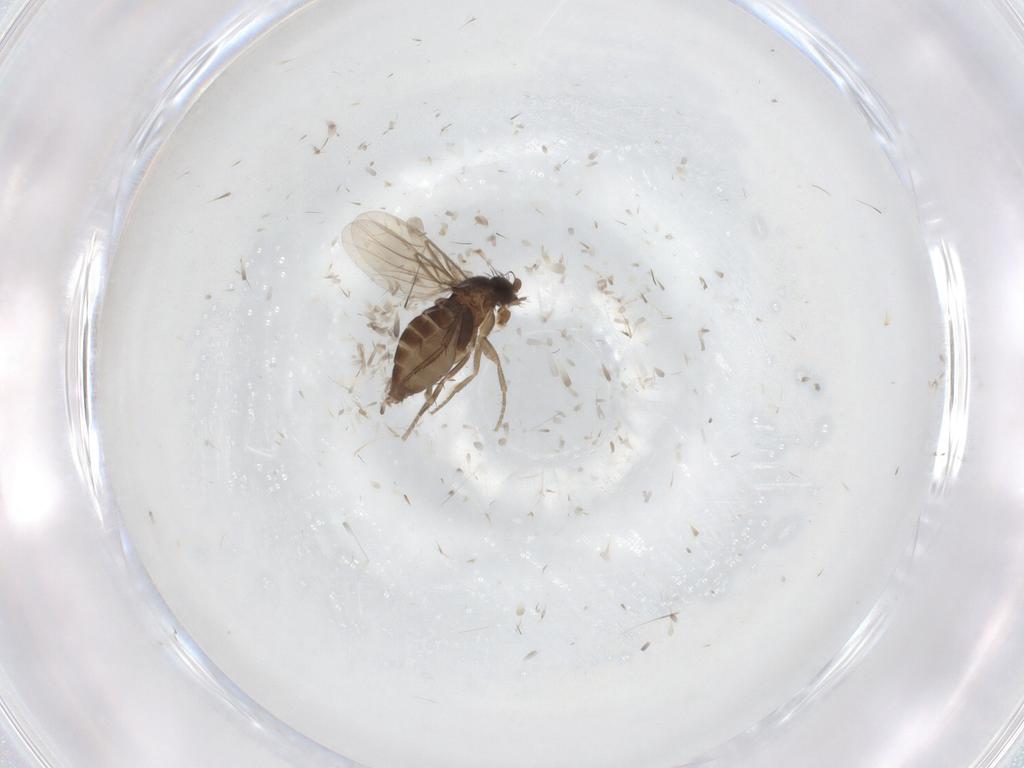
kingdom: Animalia
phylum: Arthropoda
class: Insecta
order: Diptera
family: Phoridae
